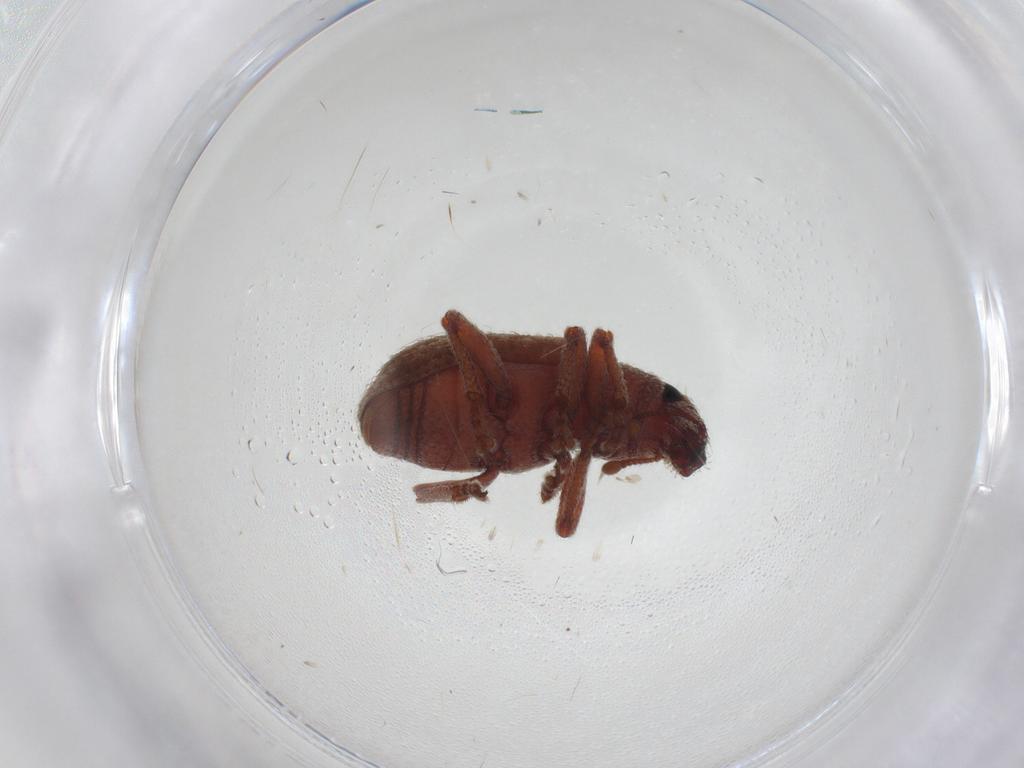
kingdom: Animalia
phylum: Arthropoda
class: Insecta
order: Coleoptera
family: Curculionidae
